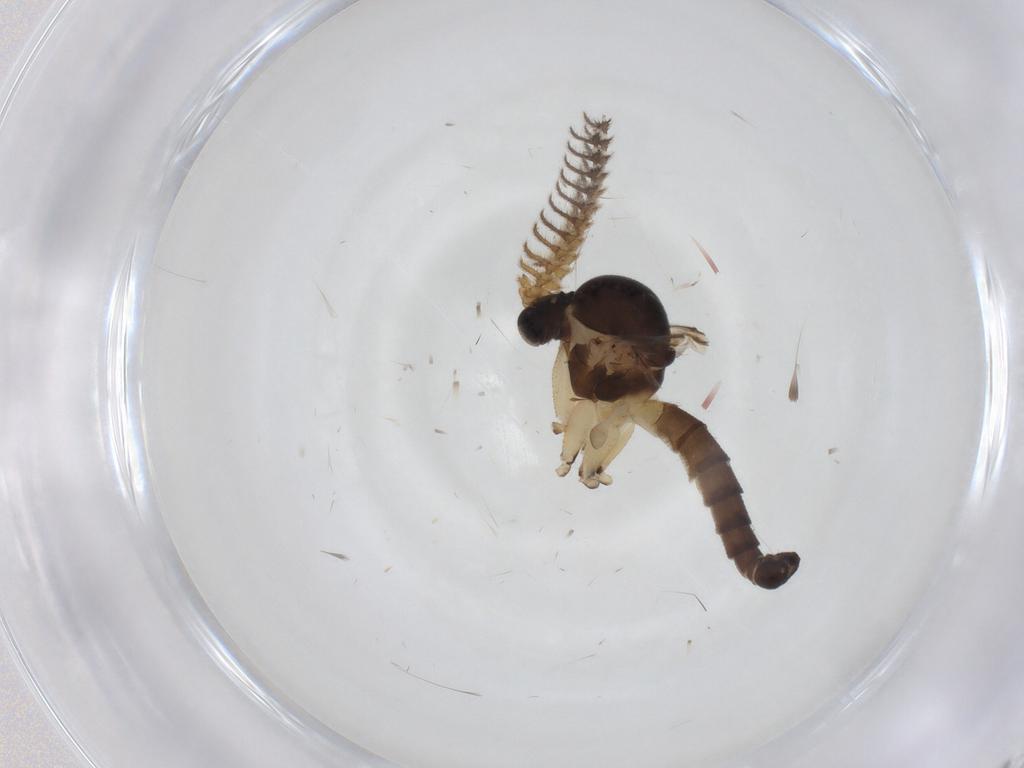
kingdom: Animalia
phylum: Arthropoda
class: Insecta
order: Diptera
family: Mycetophilidae
